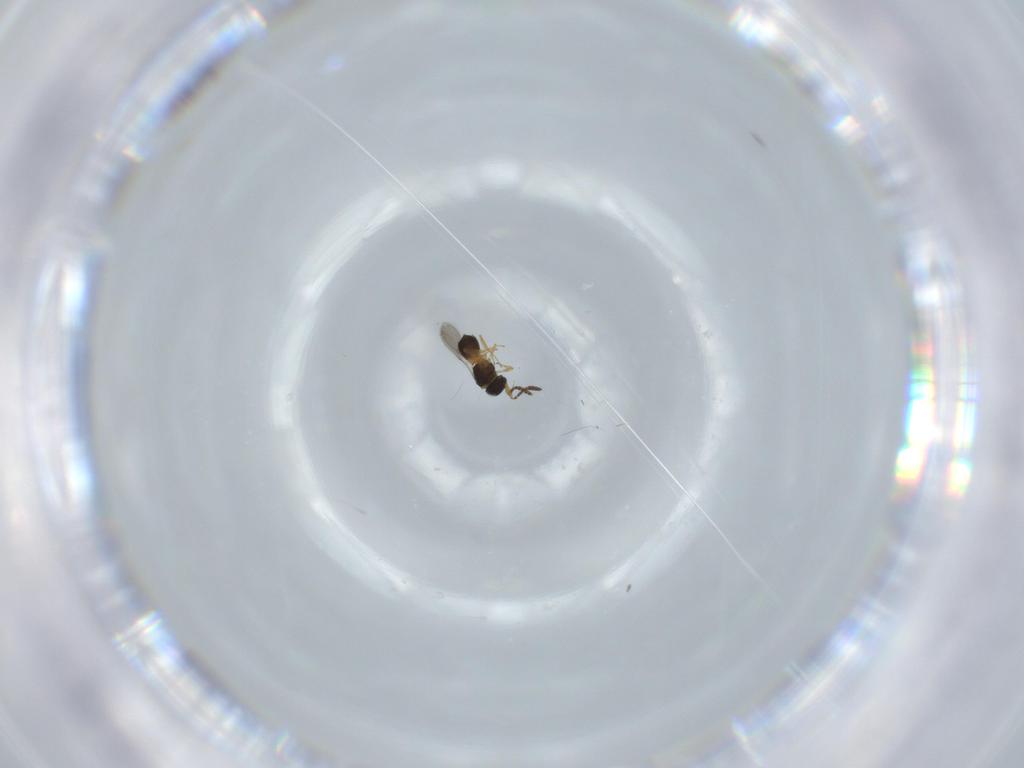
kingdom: Animalia
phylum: Arthropoda
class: Insecta
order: Hymenoptera
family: Scelionidae
